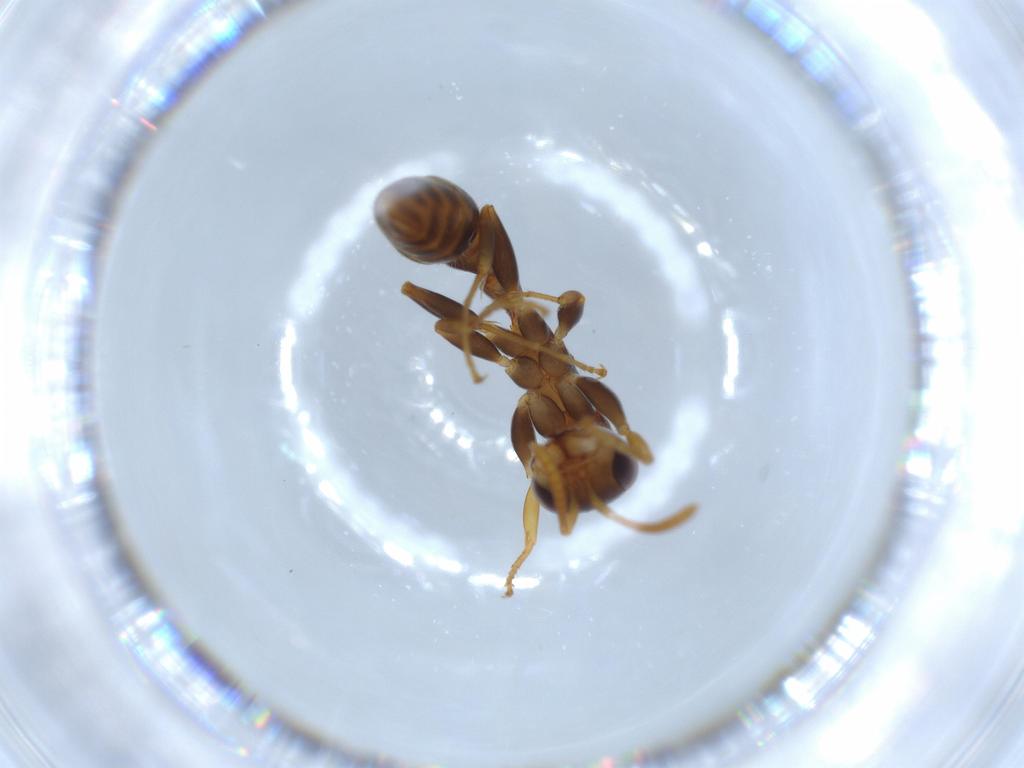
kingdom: Animalia
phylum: Arthropoda
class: Insecta
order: Hymenoptera
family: Formicidae
